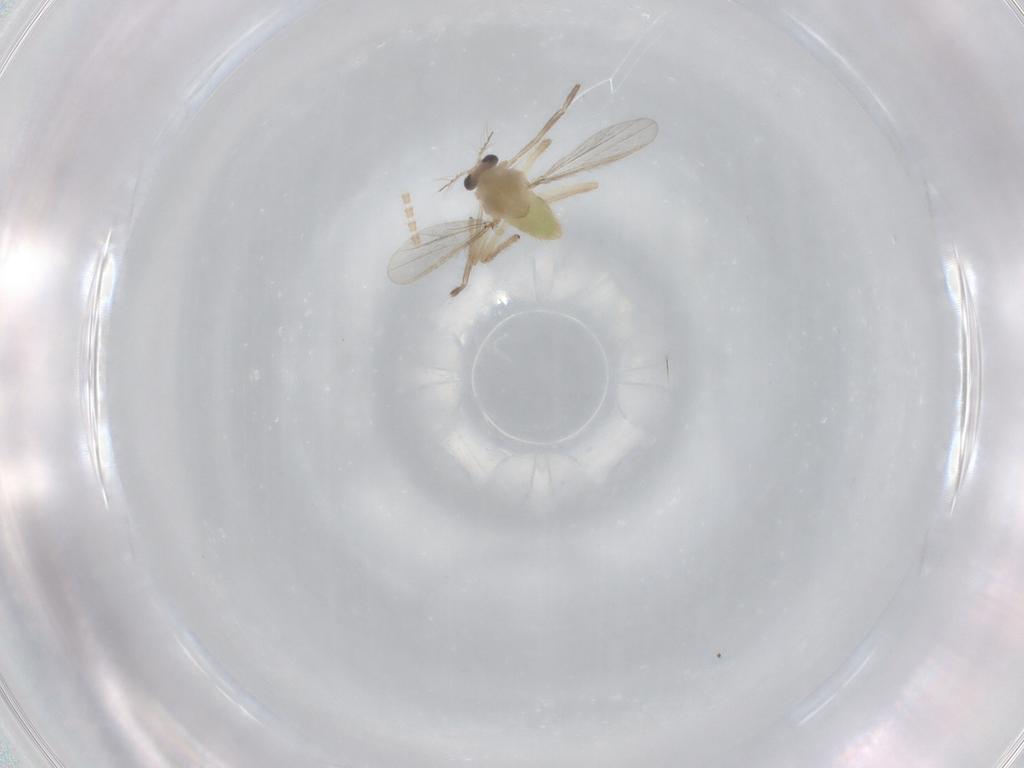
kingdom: Animalia
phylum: Arthropoda
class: Insecta
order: Diptera
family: Chironomidae
